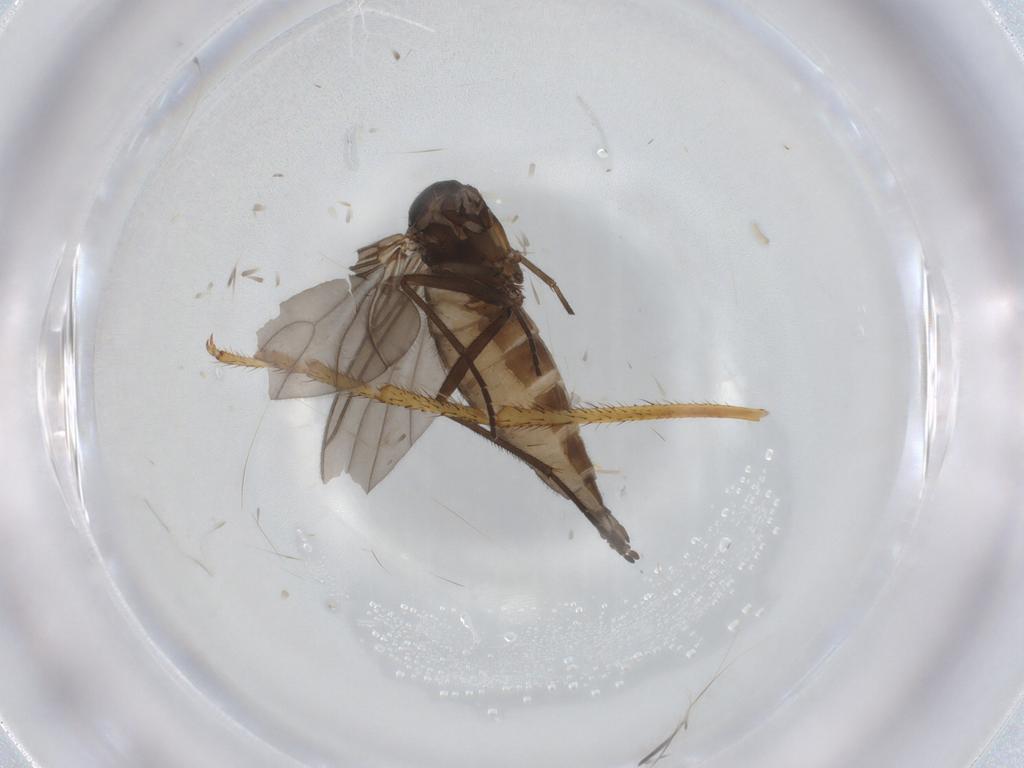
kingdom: Animalia
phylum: Arthropoda
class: Insecta
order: Diptera
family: Sciaridae
